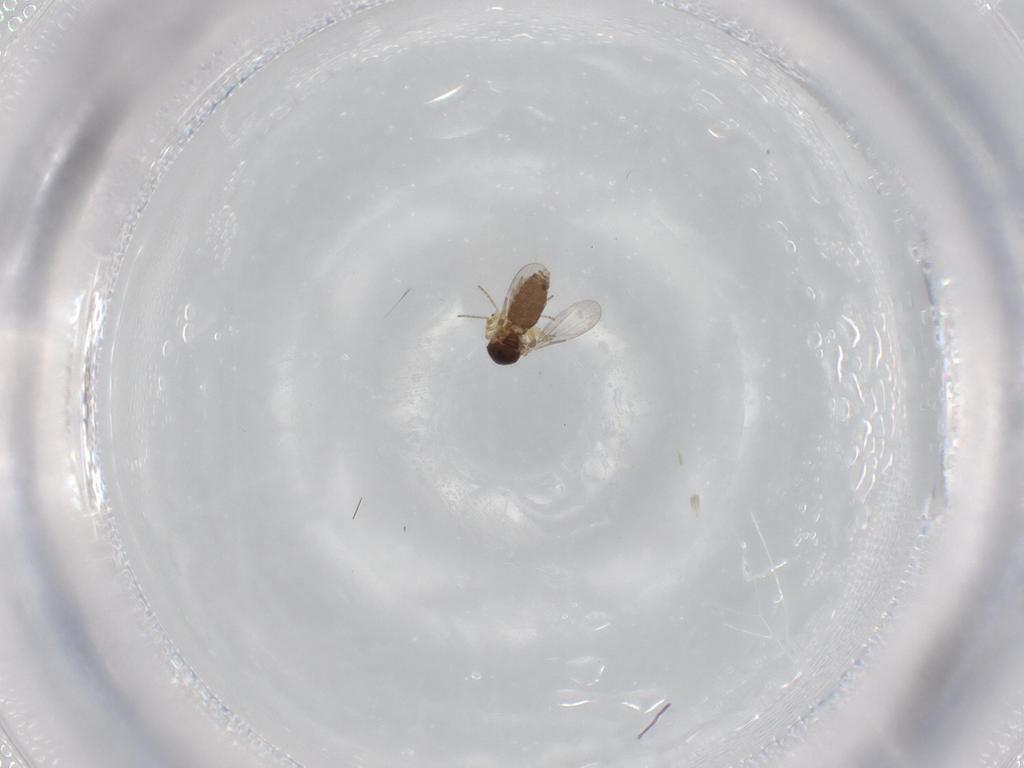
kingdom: Animalia
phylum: Arthropoda
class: Insecta
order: Diptera
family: Ceratopogonidae
